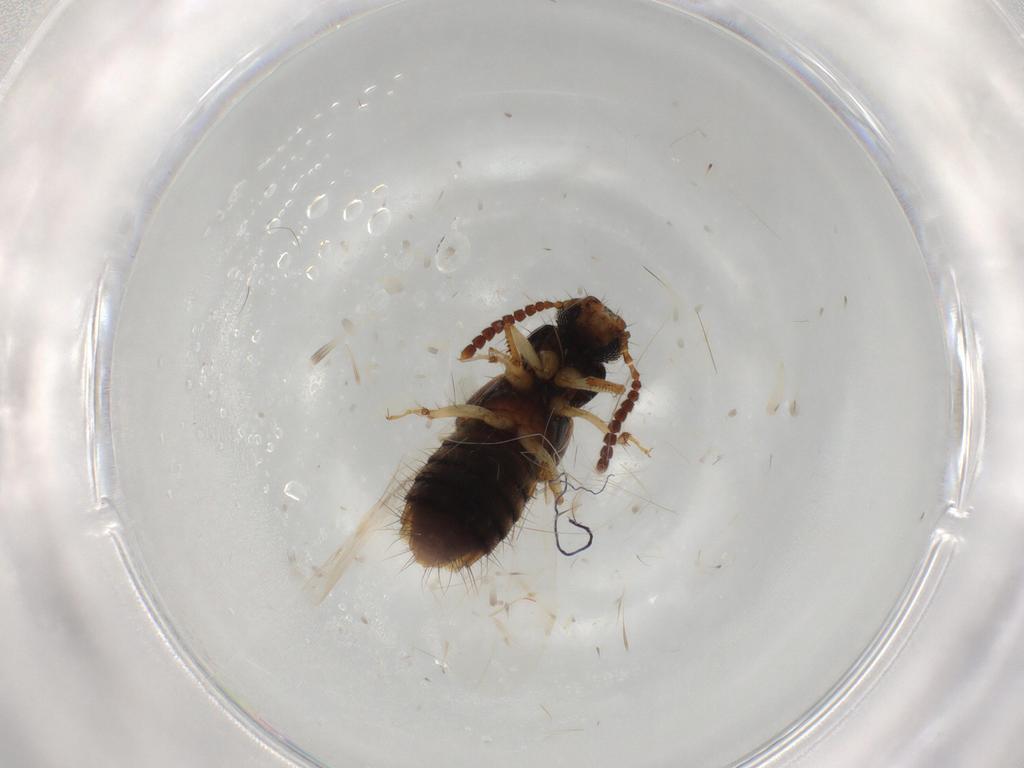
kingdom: Animalia
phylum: Arthropoda
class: Insecta
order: Coleoptera
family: Staphylinidae
